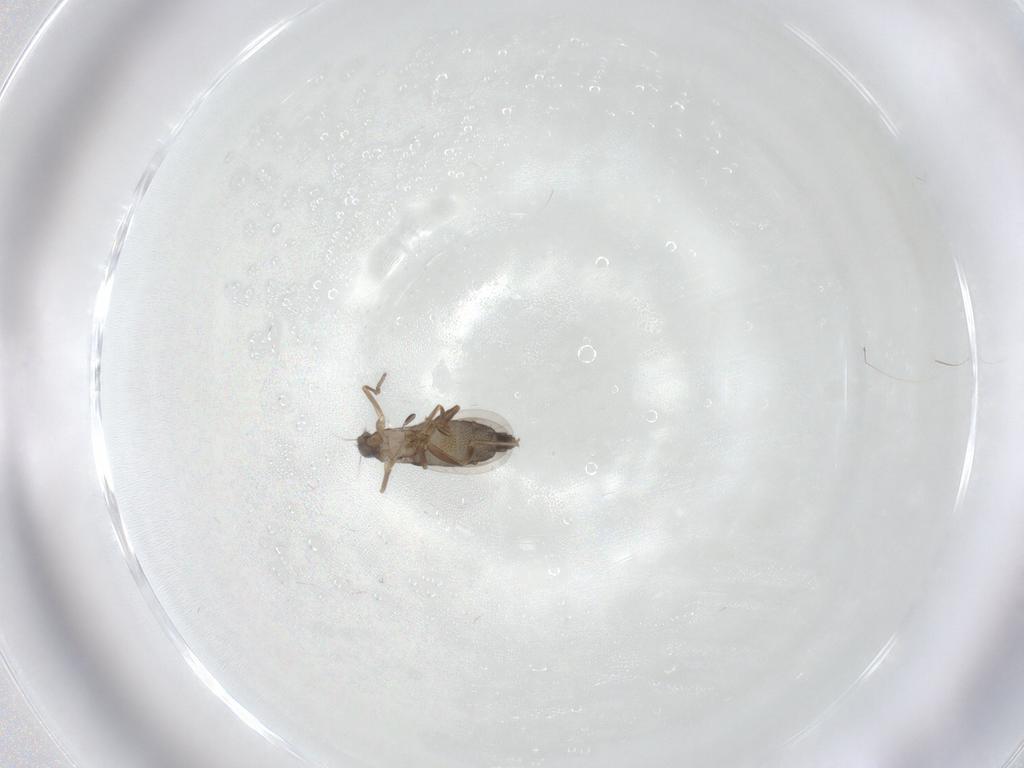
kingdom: Animalia
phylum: Arthropoda
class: Insecta
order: Diptera
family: Phoridae
